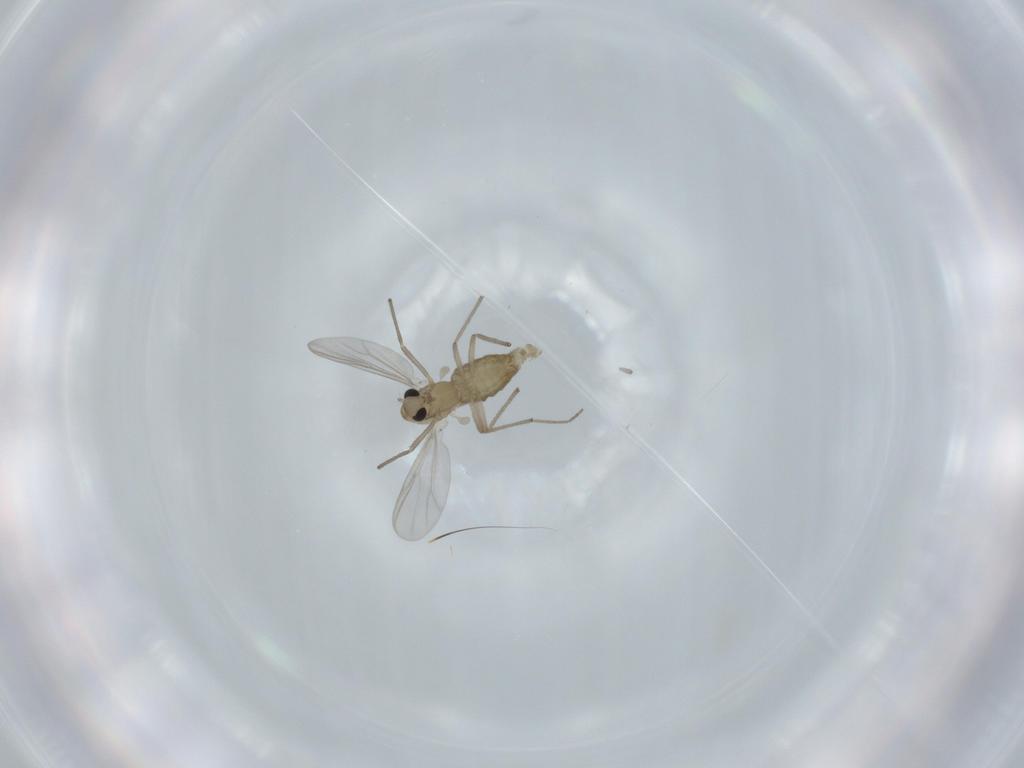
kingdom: Animalia
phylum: Arthropoda
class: Insecta
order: Diptera
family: Chironomidae
